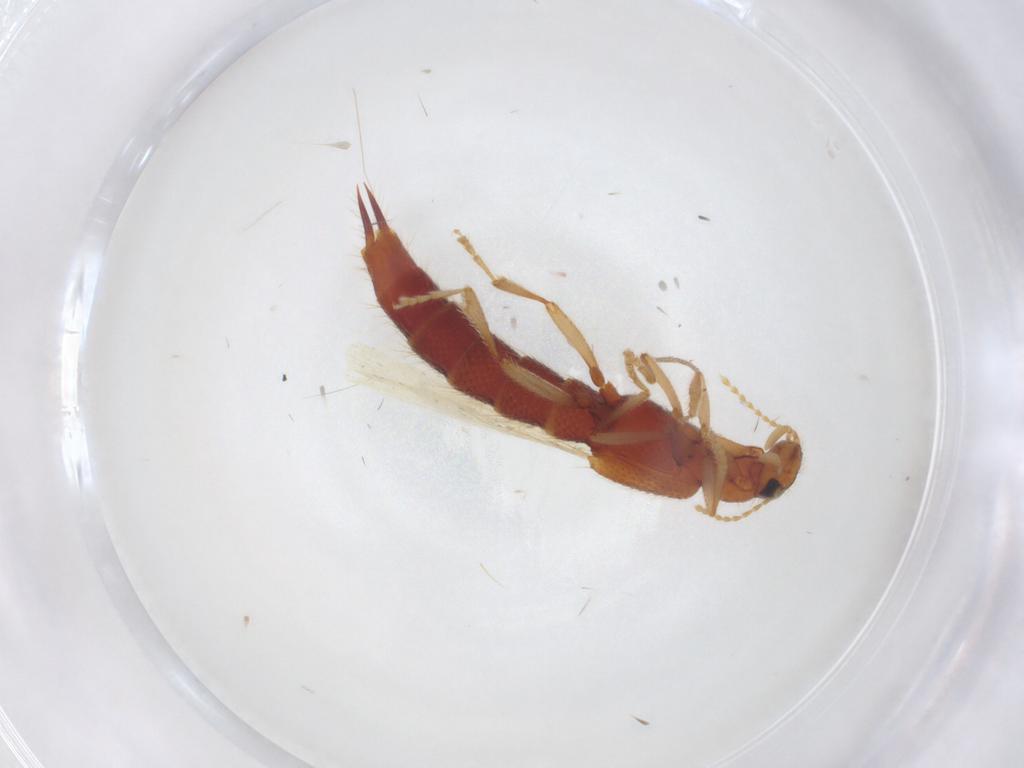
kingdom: Animalia
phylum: Arthropoda
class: Insecta
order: Coleoptera
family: Staphylinidae
